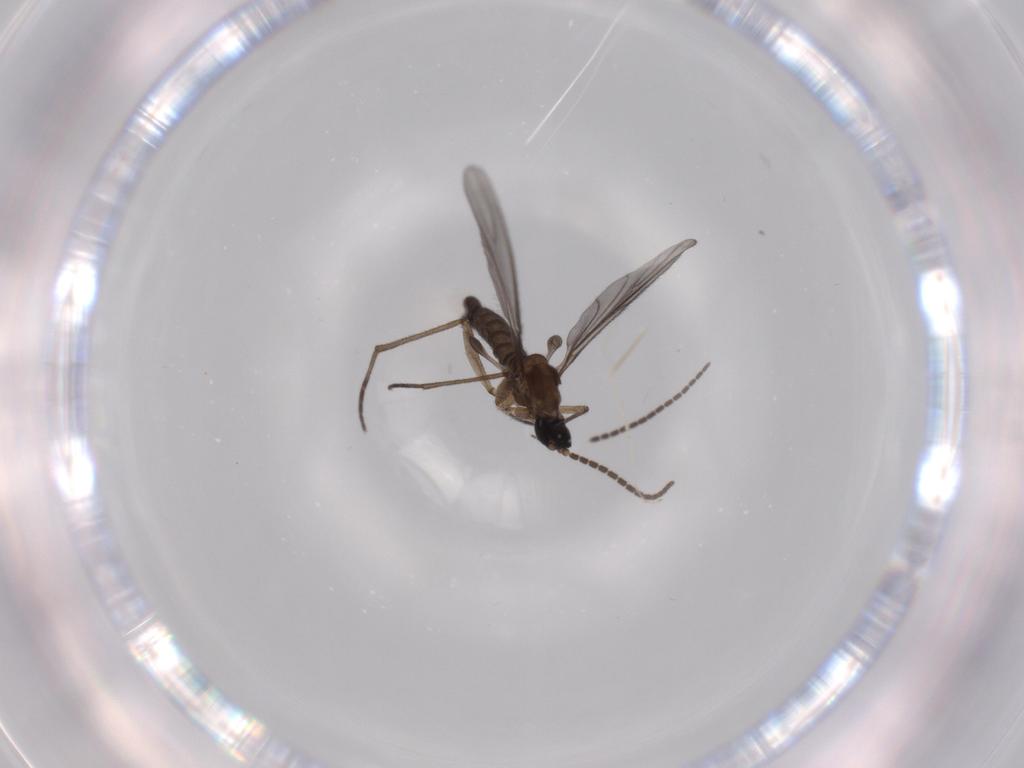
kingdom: Animalia
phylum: Arthropoda
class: Insecta
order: Diptera
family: Sciaridae
